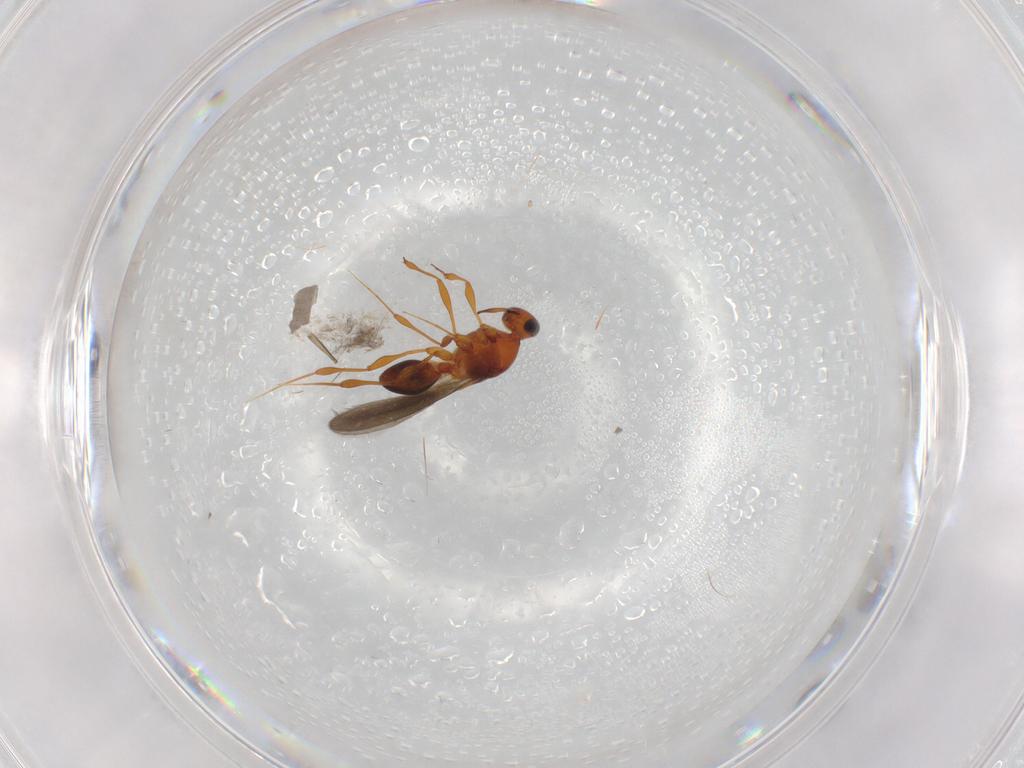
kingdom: Animalia
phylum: Arthropoda
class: Insecta
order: Hymenoptera
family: Platygastridae
